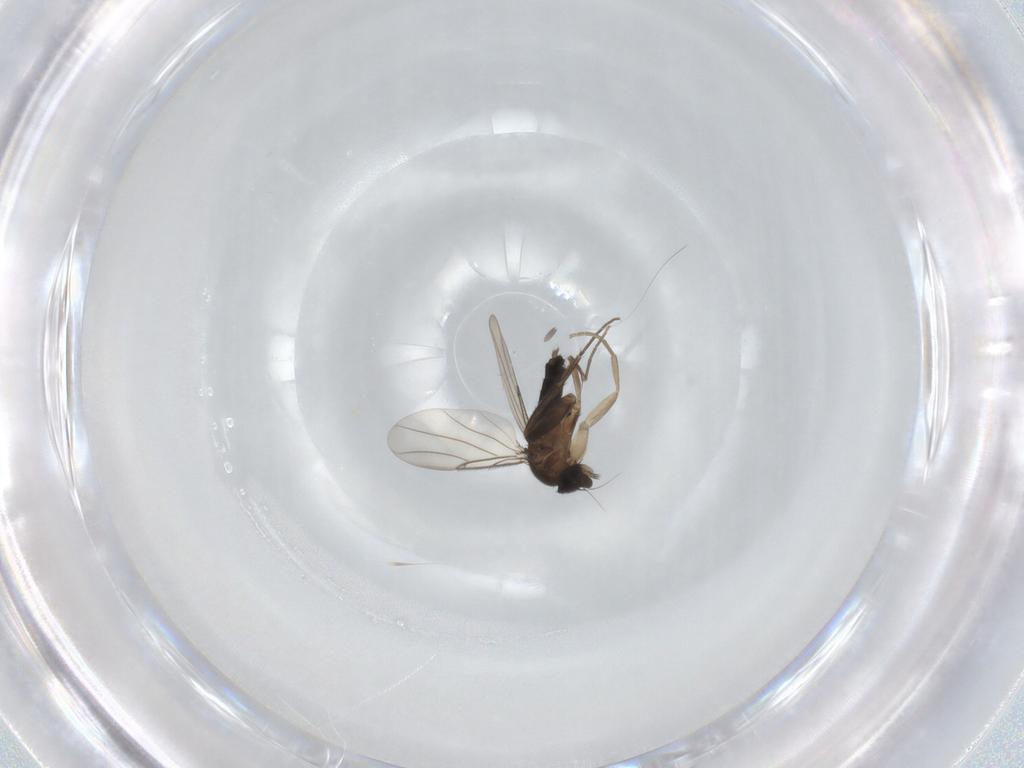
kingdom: Animalia
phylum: Arthropoda
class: Insecta
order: Diptera
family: Phoridae
